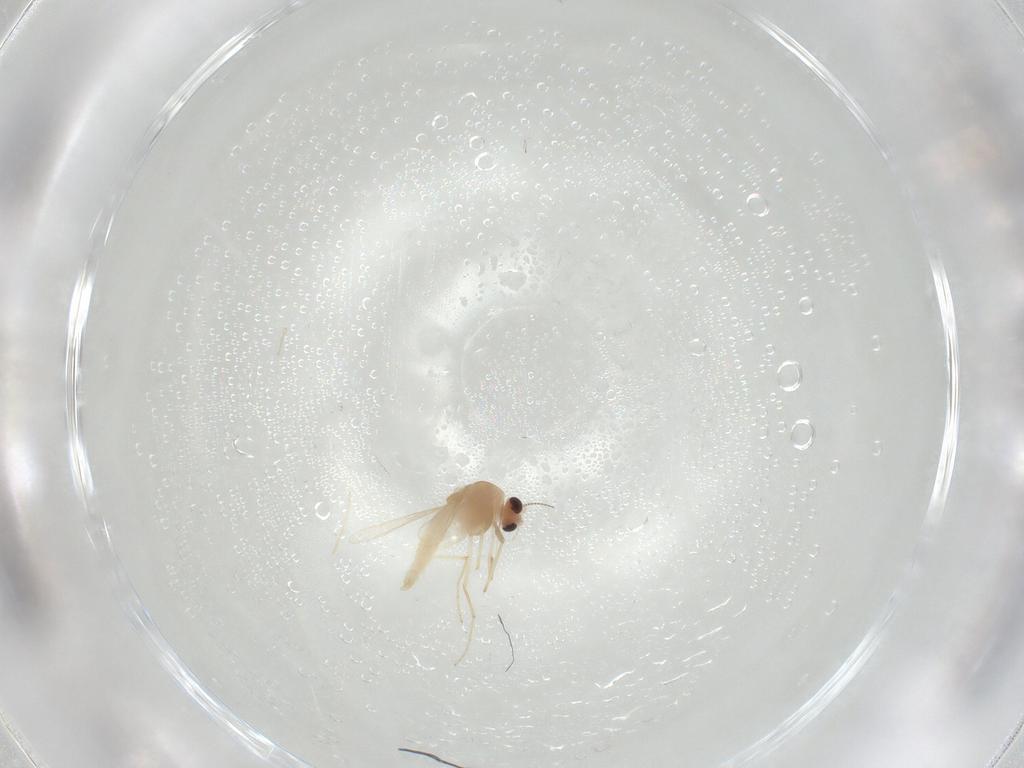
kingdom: Animalia
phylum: Arthropoda
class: Insecta
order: Diptera
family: Chironomidae
